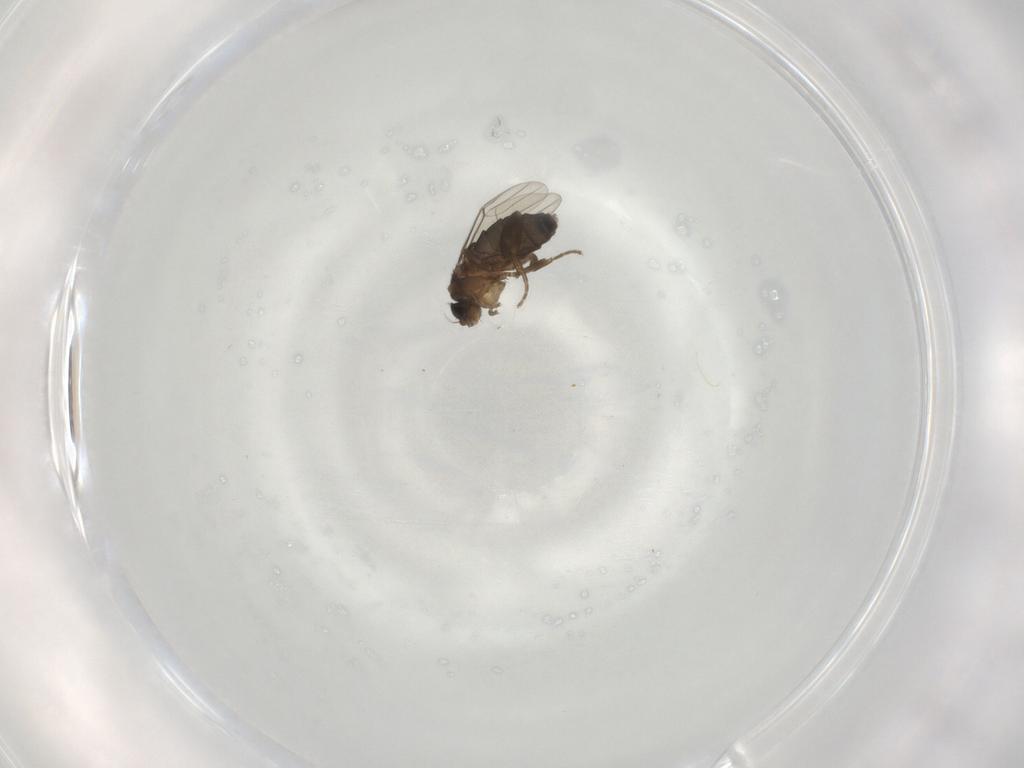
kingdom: Animalia
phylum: Arthropoda
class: Insecta
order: Diptera
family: Phoridae
